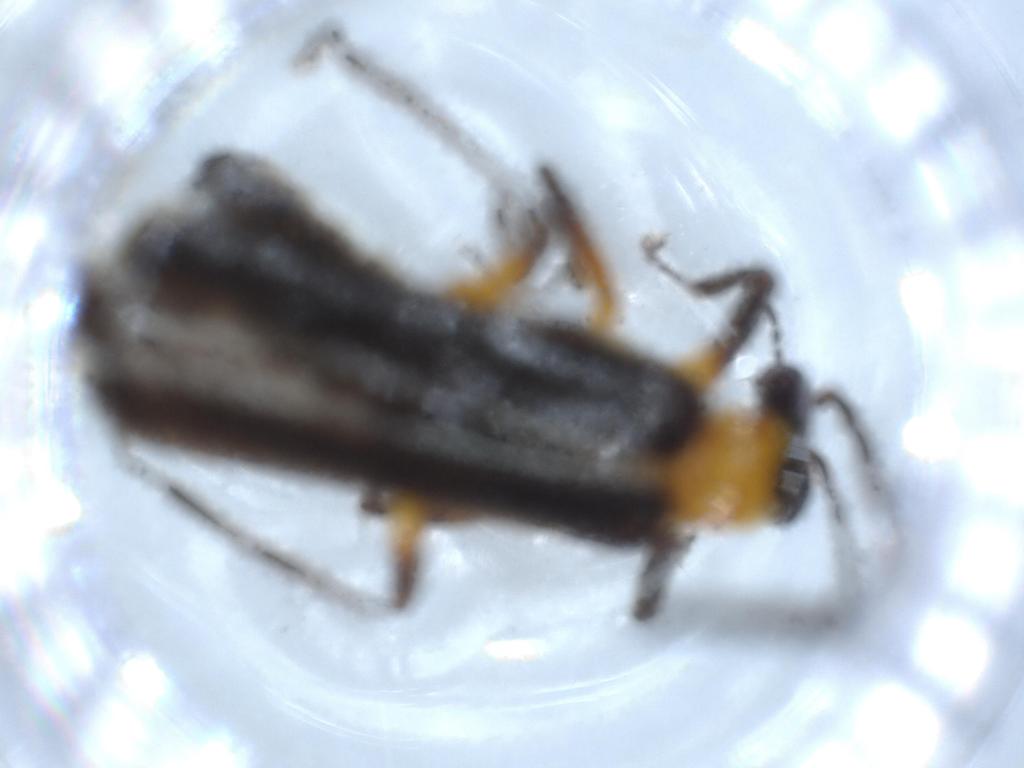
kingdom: Animalia
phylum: Arthropoda
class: Insecta
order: Coleoptera
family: Cantharidae
